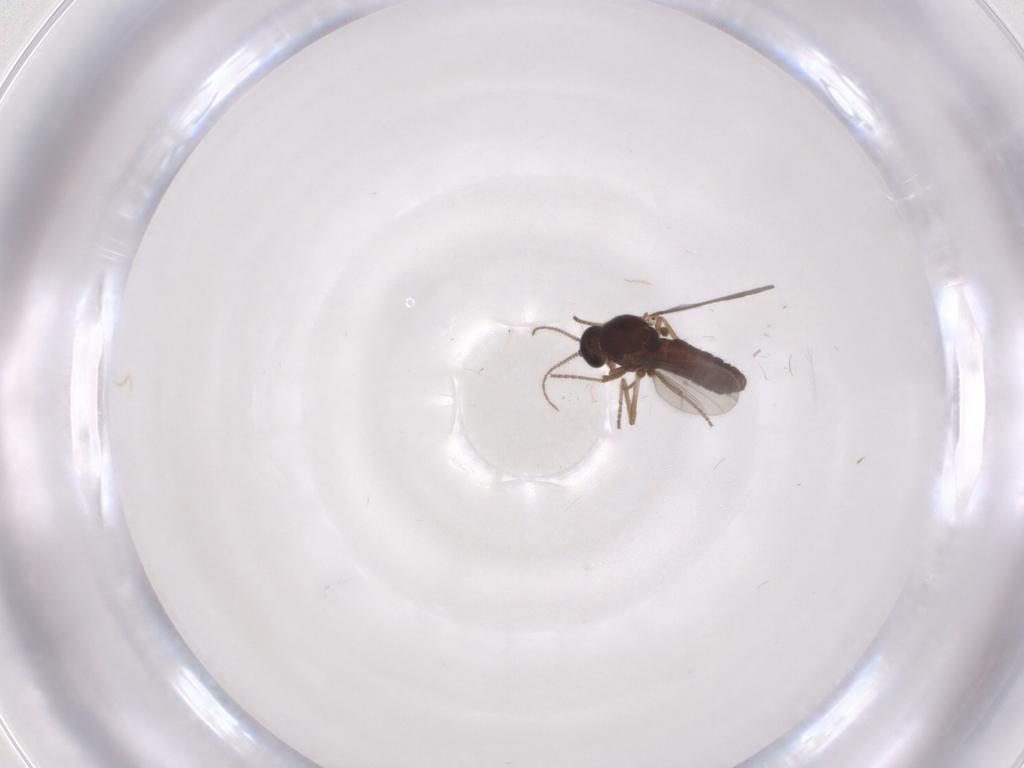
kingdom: Animalia
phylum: Arthropoda
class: Insecta
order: Diptera
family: Ceratopogonidae
